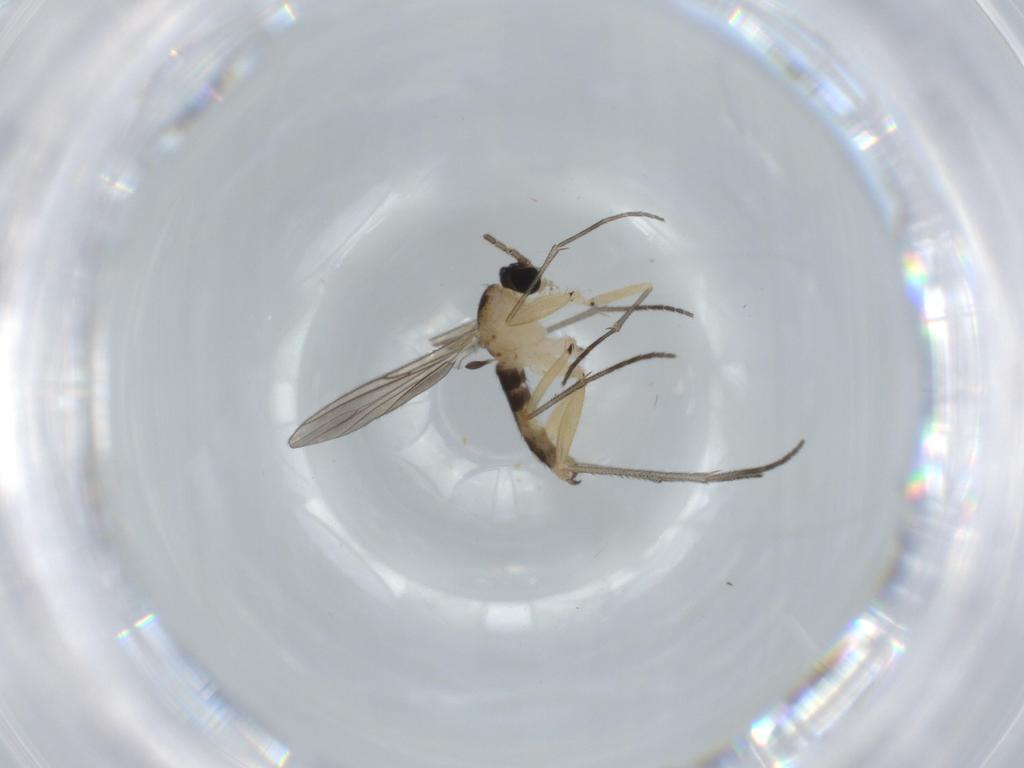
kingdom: Animalia
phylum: Arthropoda
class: Insecta
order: Diptera
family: Sciaridae
